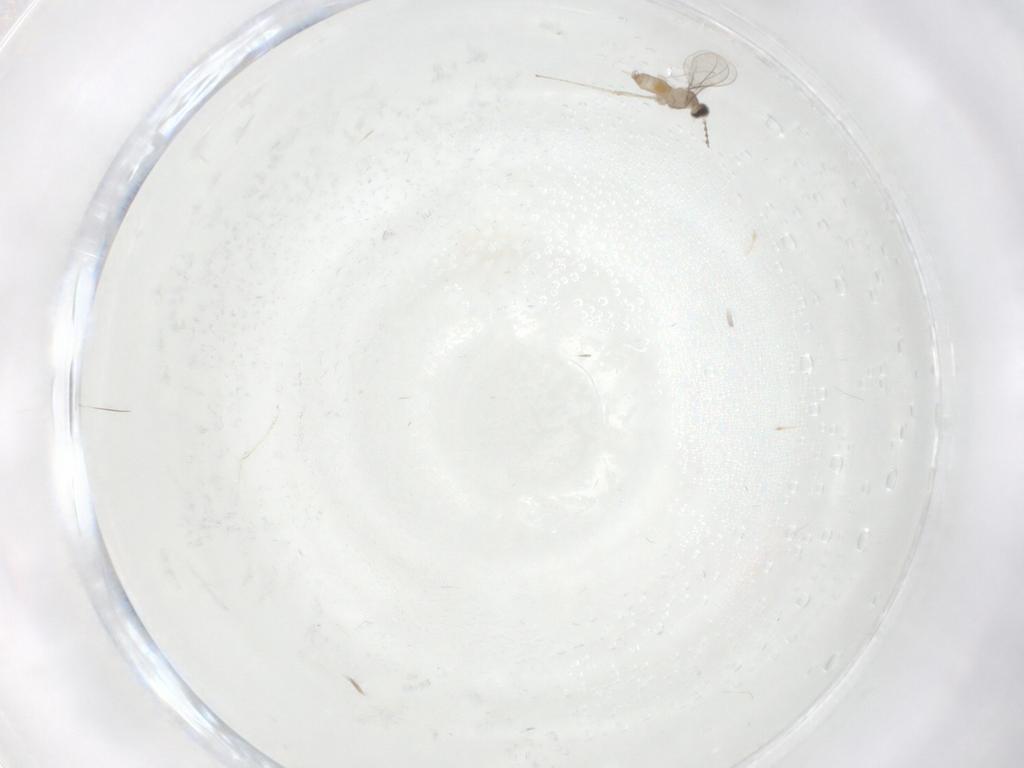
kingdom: Animalia
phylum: Arthropoda
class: Insecta
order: Diptera
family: Cecidomyiidae
